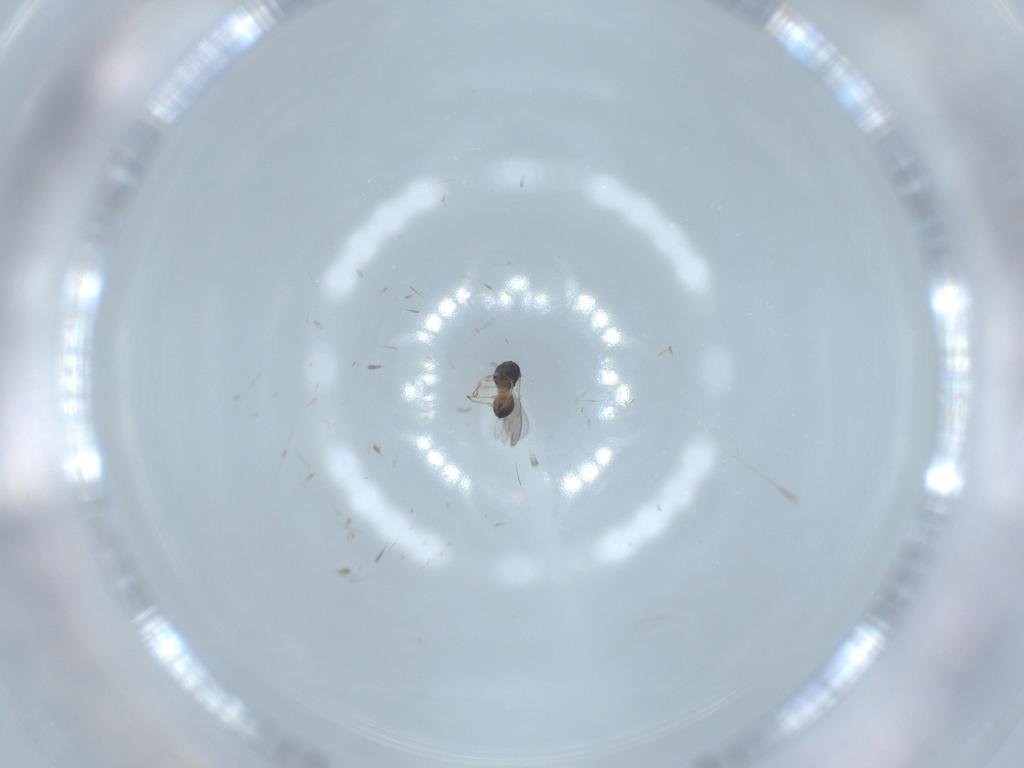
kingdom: Animalia
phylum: Arthropoda
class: Insecta
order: Hymenoptera
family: Scelionidae
